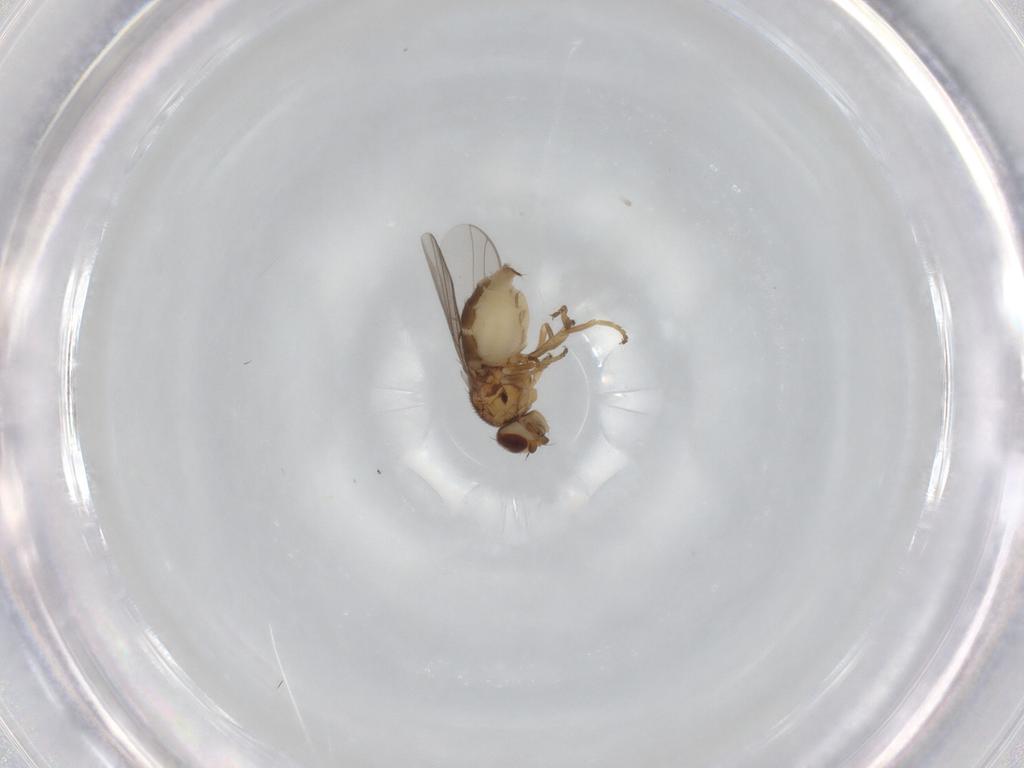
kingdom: Animalia
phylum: Arthropoda
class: Insecta
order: Diptera
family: Chloropidae
